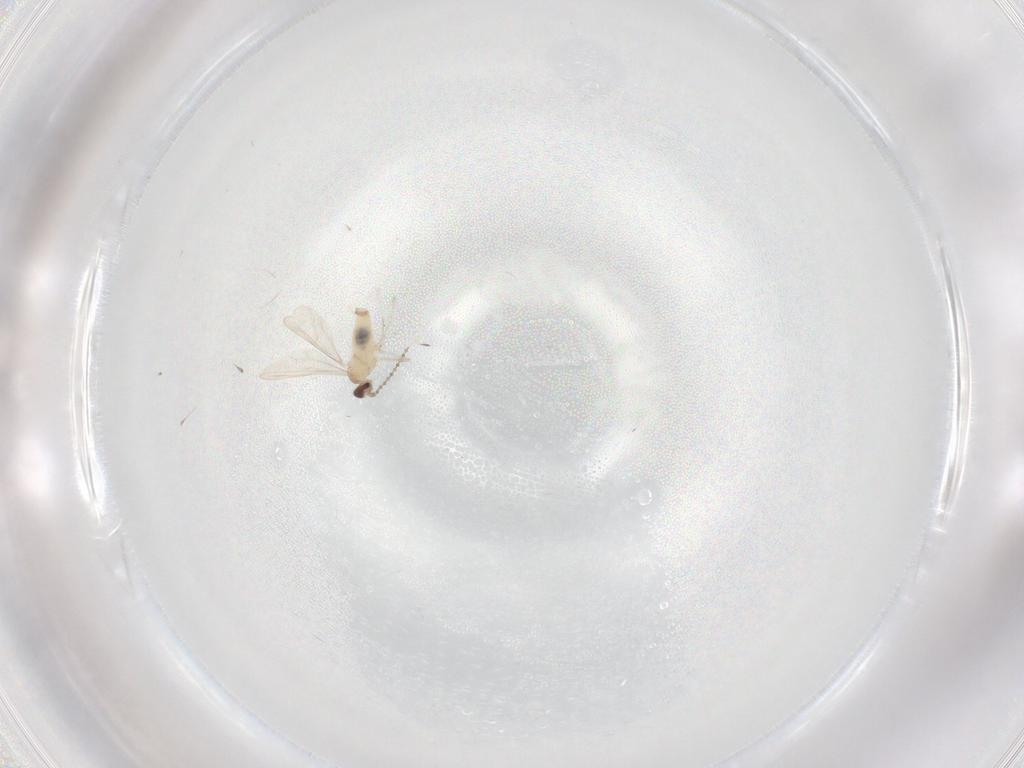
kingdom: Animalia
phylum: Arthropoda
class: Insecta
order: Diptera
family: Cecidomyiidae
